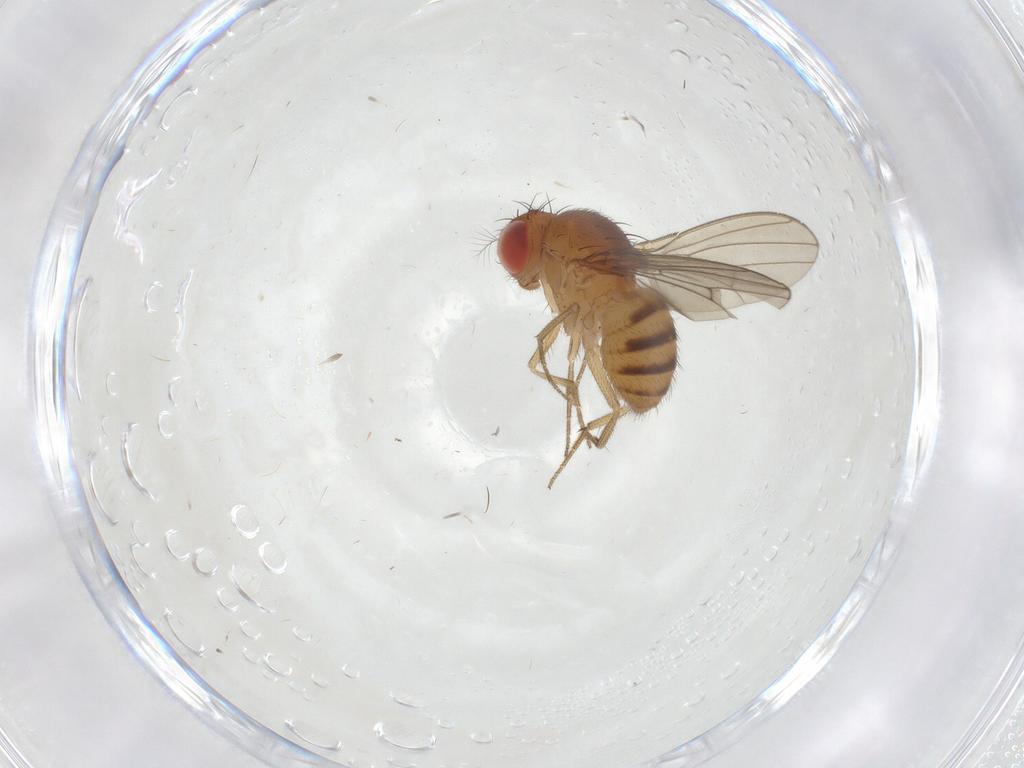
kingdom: Animalia
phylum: Arthropoda
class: Insecta
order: Diptera
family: Drosophilidae
